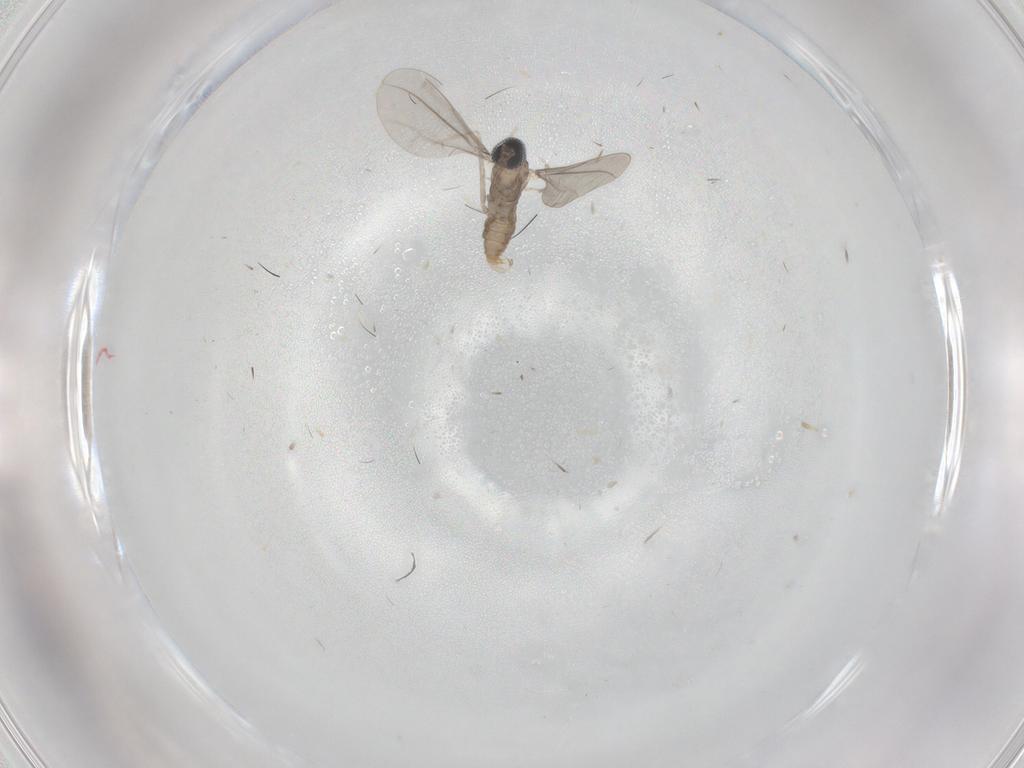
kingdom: Animalia
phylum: Arthropoda
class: Insecta
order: Diptera
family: Cecidomyiidae
